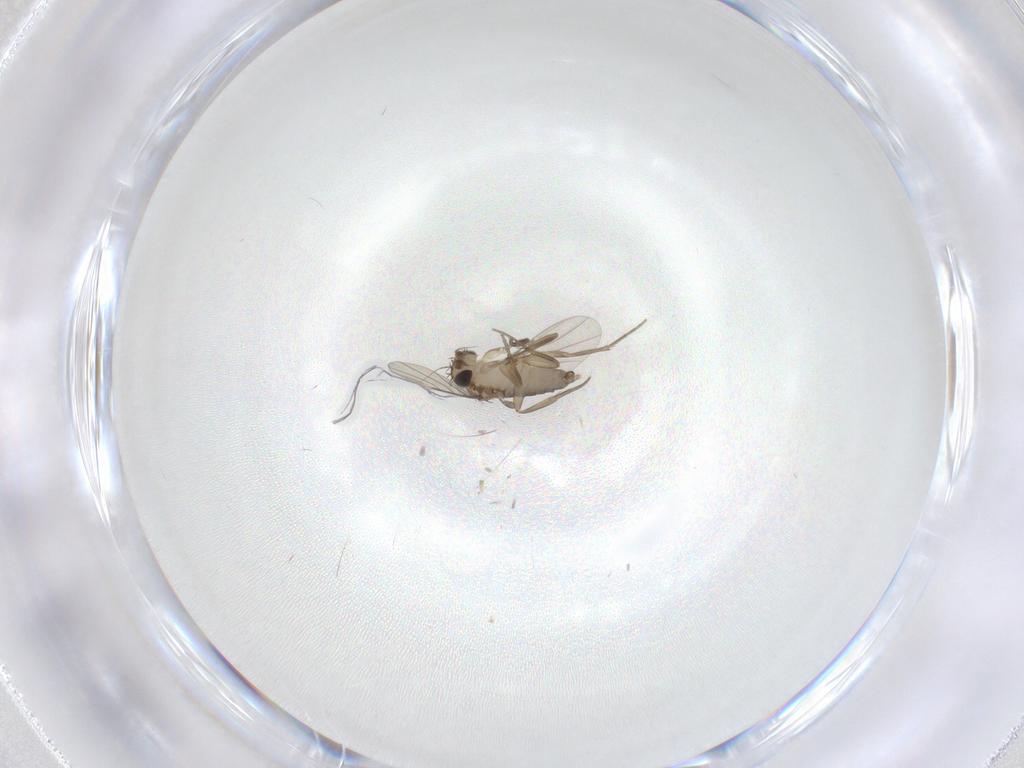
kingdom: Animalia
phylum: Arthropoda
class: Insecta
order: Diptera
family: Phoridae
